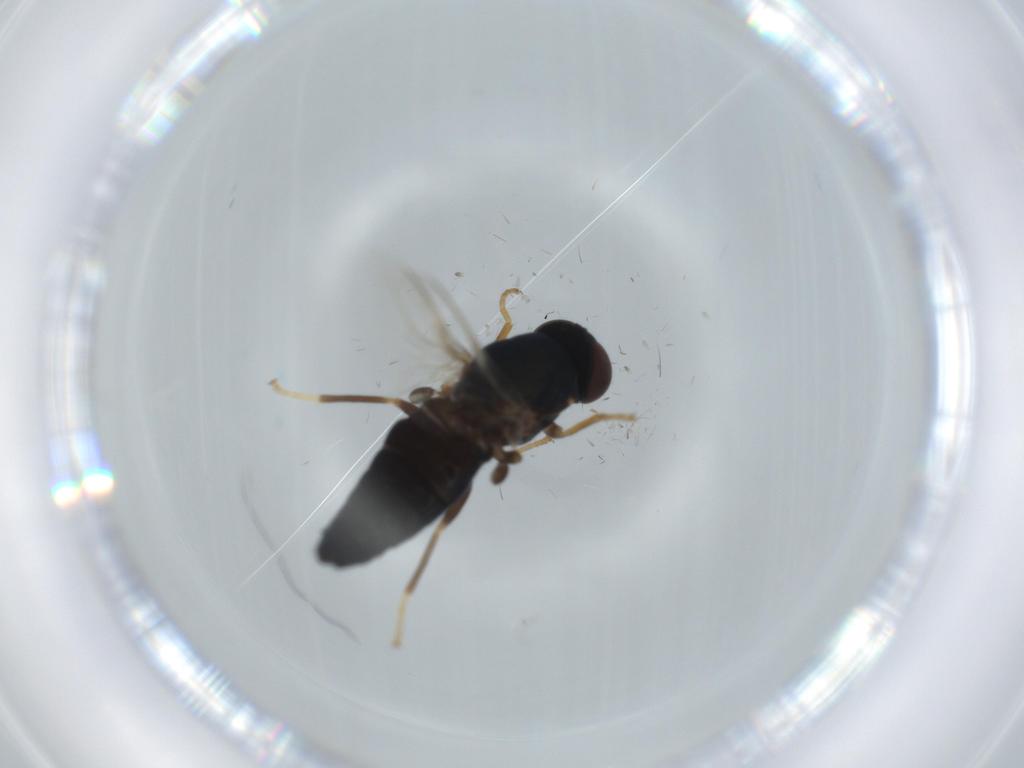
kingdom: Animalia
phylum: Arthropoda
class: Insecta
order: Diptera
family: Scenopinidae
